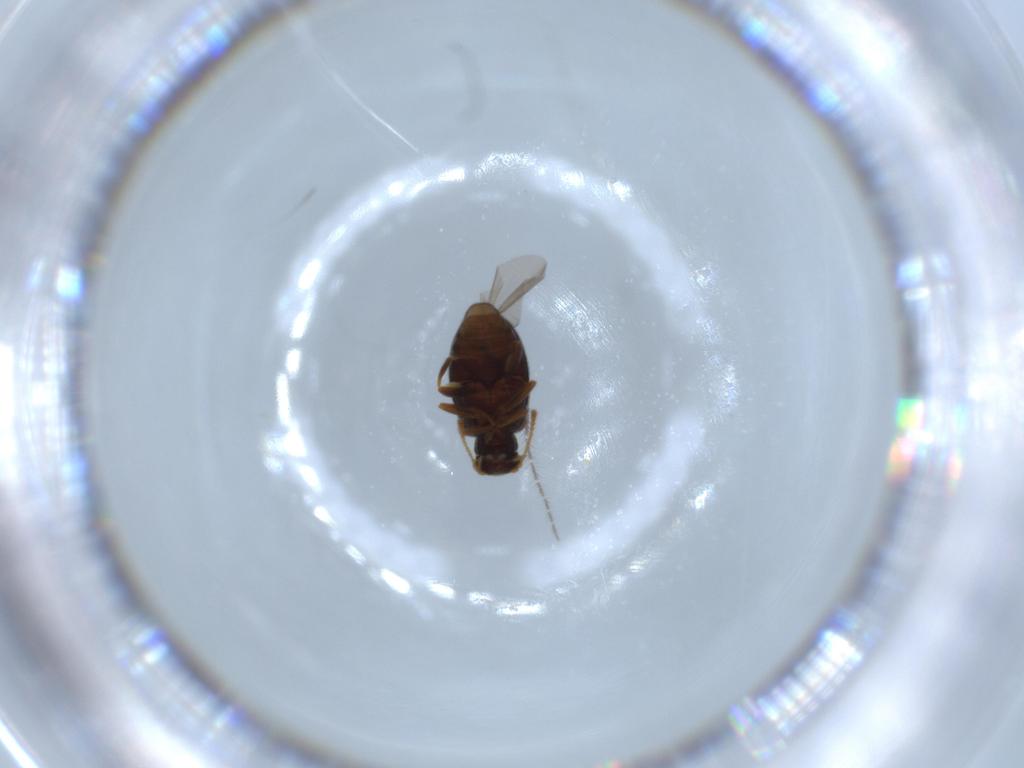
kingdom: Animalia
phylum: Arthropoda
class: Insecta
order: Coleoptera
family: Aderidae
